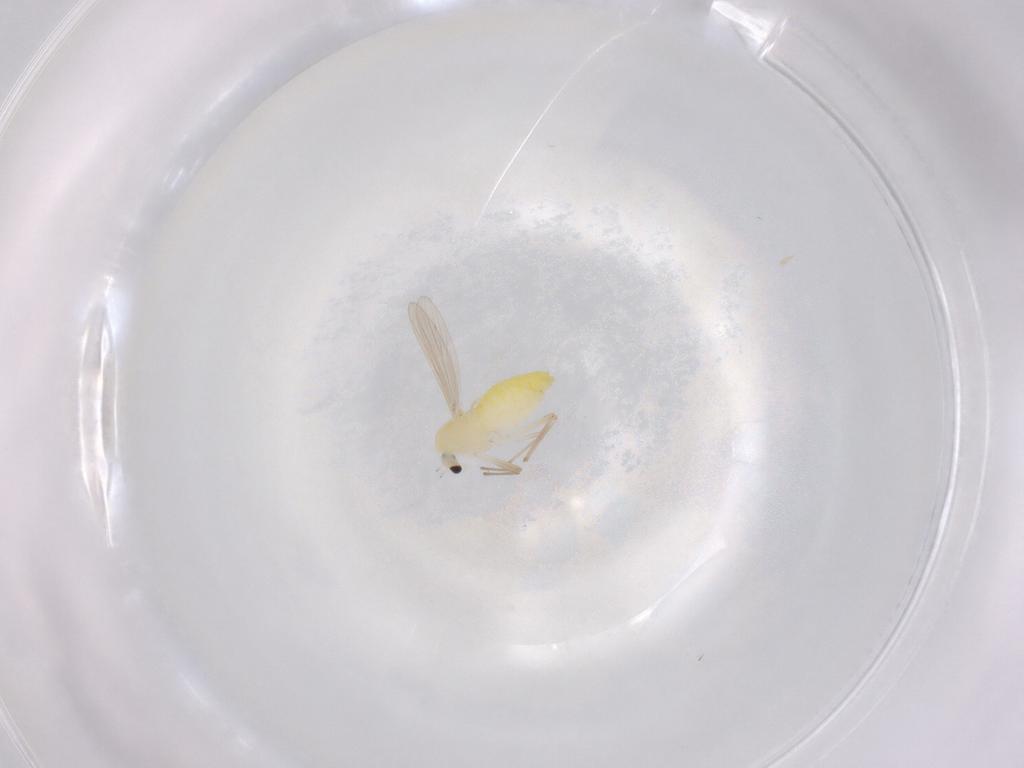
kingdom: Animalia
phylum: Arthropoda
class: Insecta
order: Diptera
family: Chironomidae
